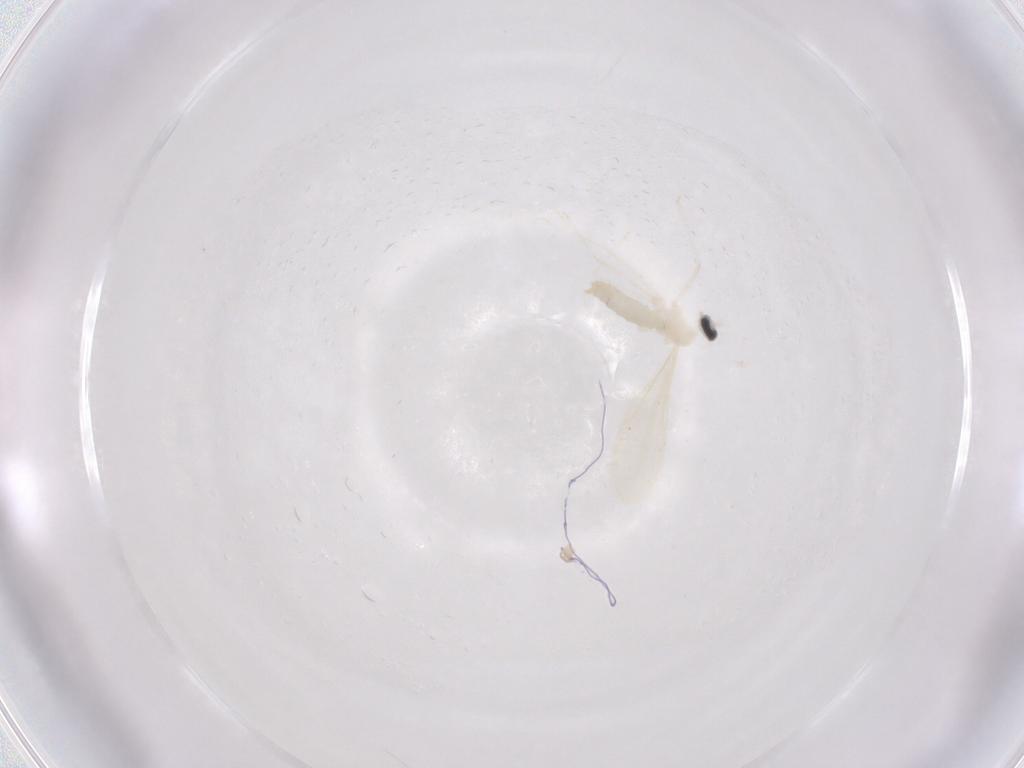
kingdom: Animalia
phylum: Arthropoda
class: Insecta
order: Diptera
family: Cecidomyiidae
